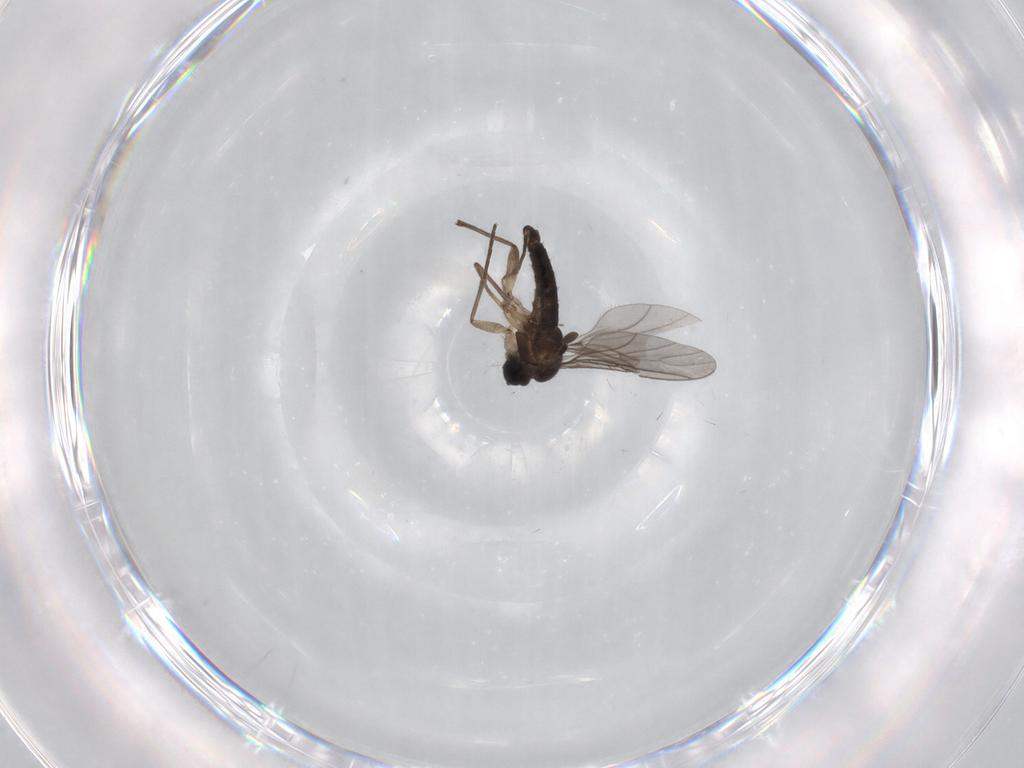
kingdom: Animalia
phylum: Arthropoda
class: Insecta
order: Diptera
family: Sciaridae
